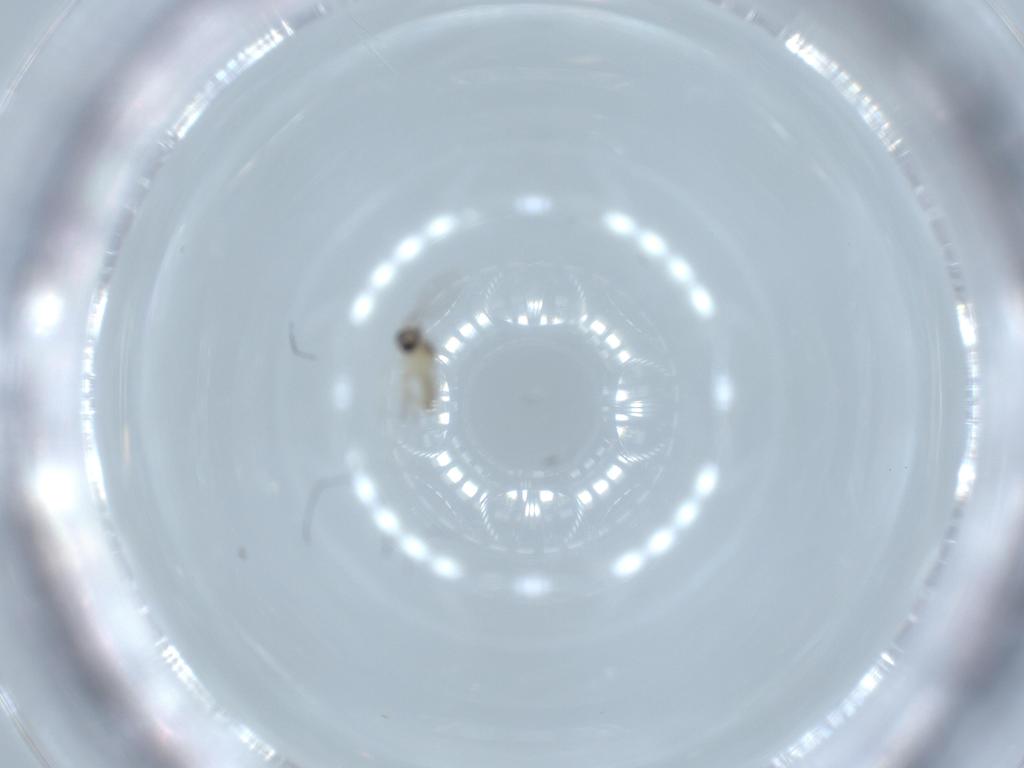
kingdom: Animalia
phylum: Arthropoda
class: Insecta
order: Diptera
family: Cecidomyiidae
